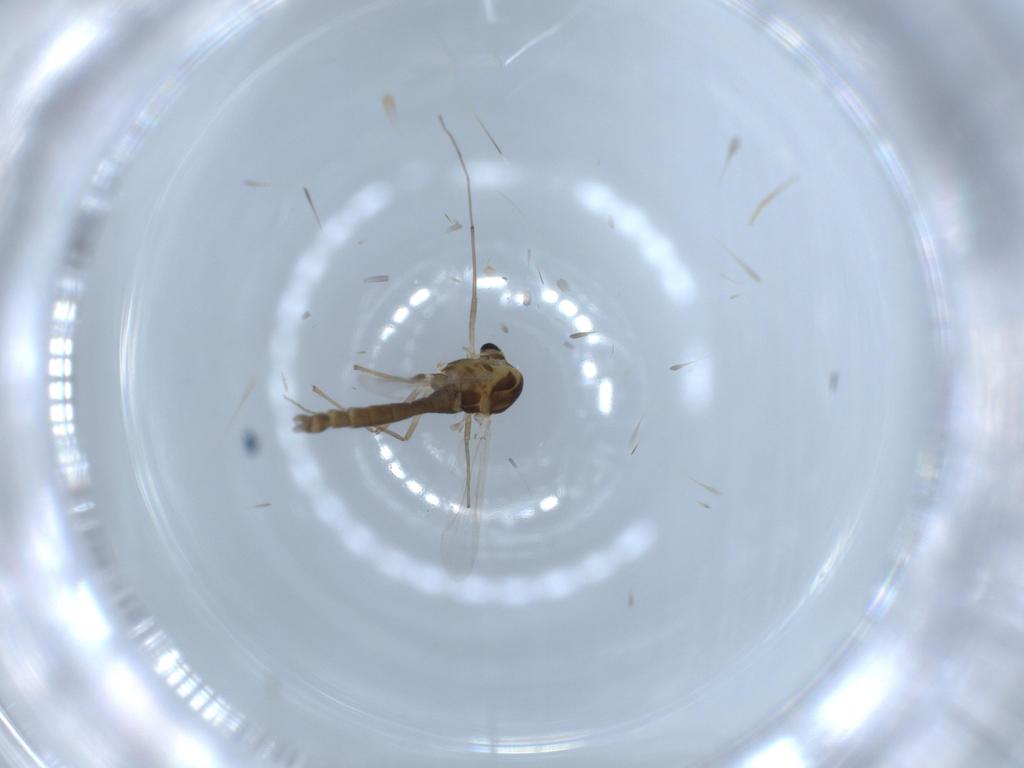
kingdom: Animalia
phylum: Arthropoda
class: Insecta
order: Diptera
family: Chironomidae
